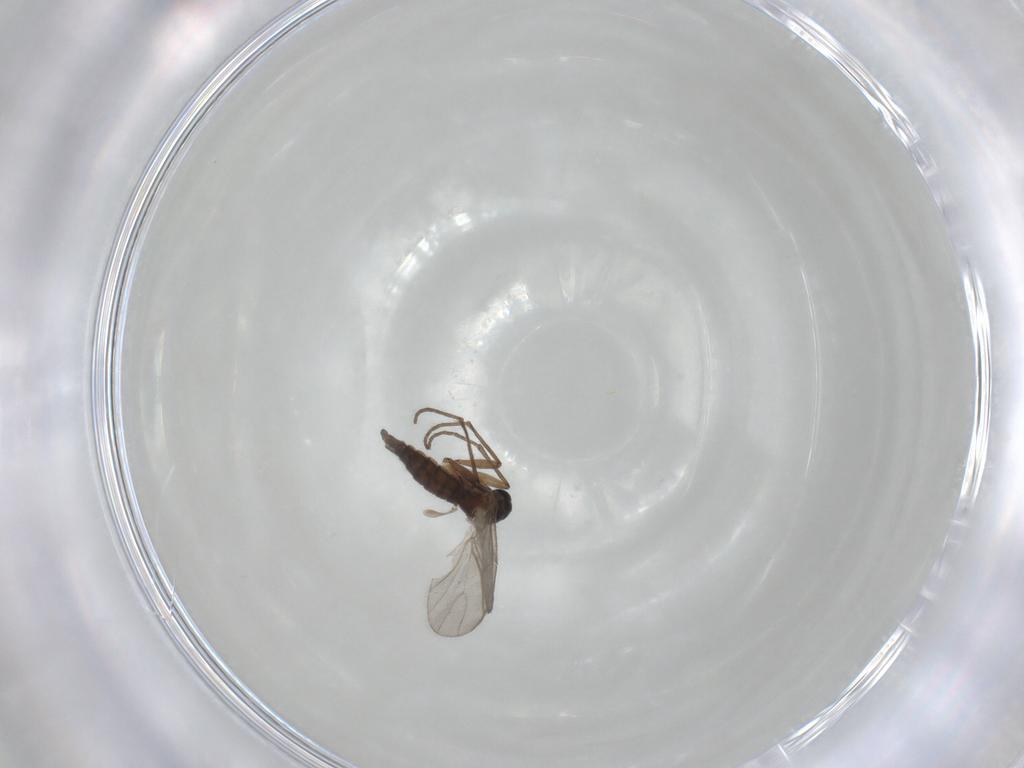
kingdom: Animalia
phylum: Arthropoda
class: Insecta
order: Diptera
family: Sciaridae
